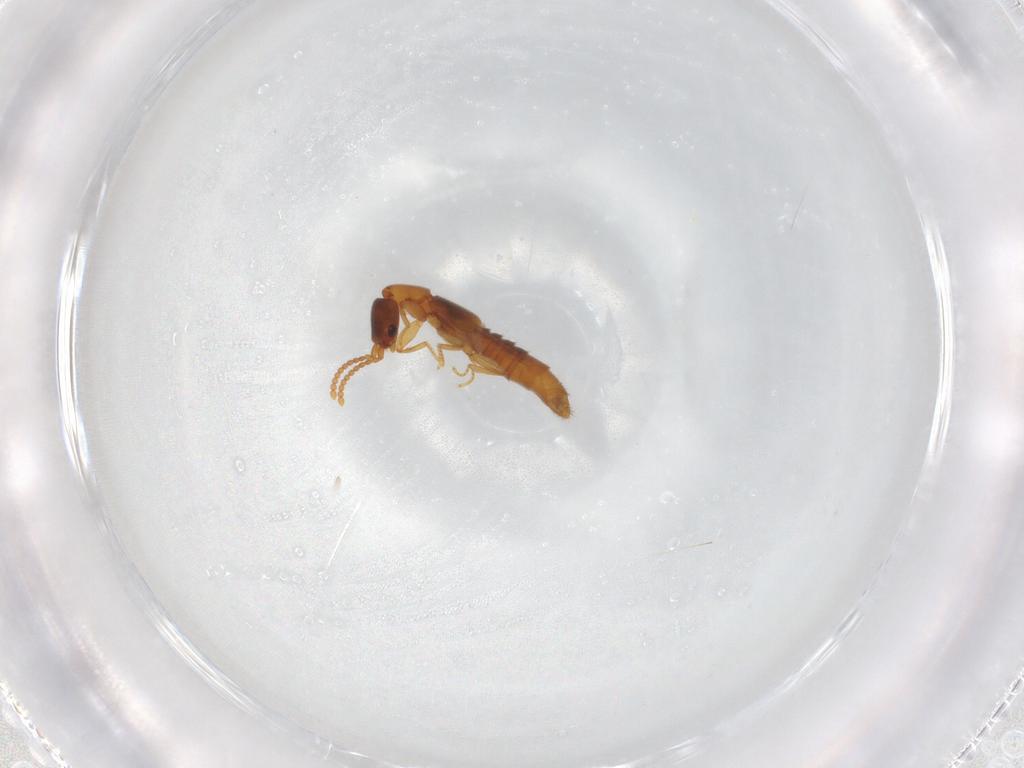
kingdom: Animalia
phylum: Arthropoda
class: Insecta
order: Coleoptera
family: Staphylinidae
